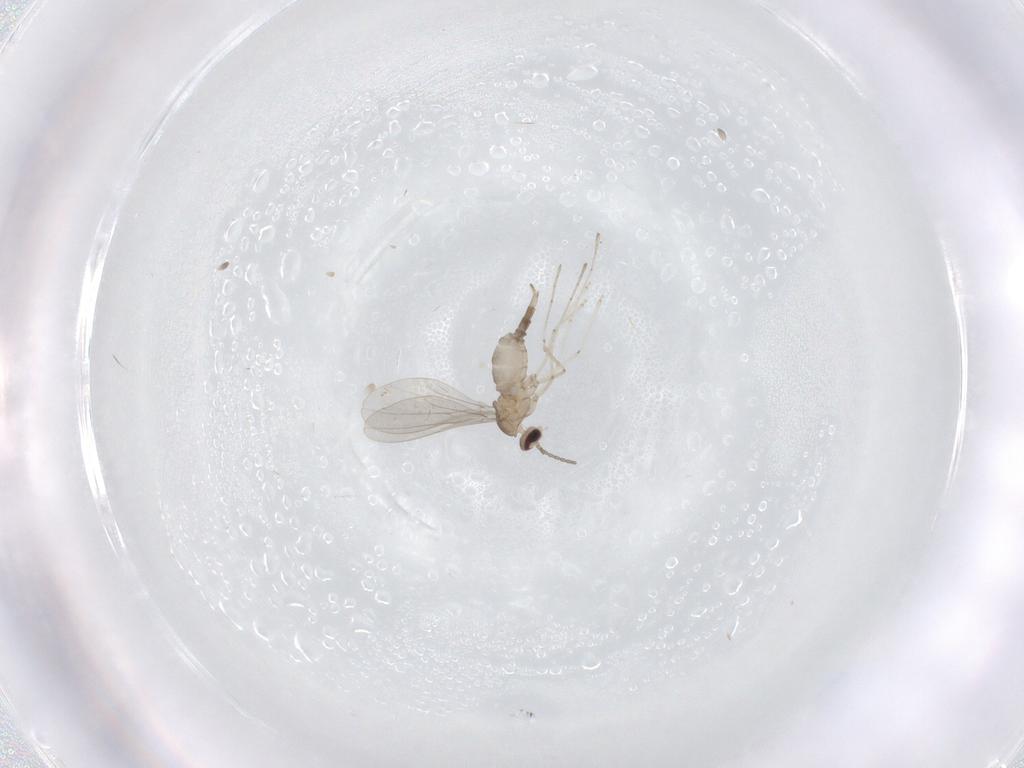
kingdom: Animalia
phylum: Arthropoda
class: Insecta
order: Diptera
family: Cecidomyiidae
